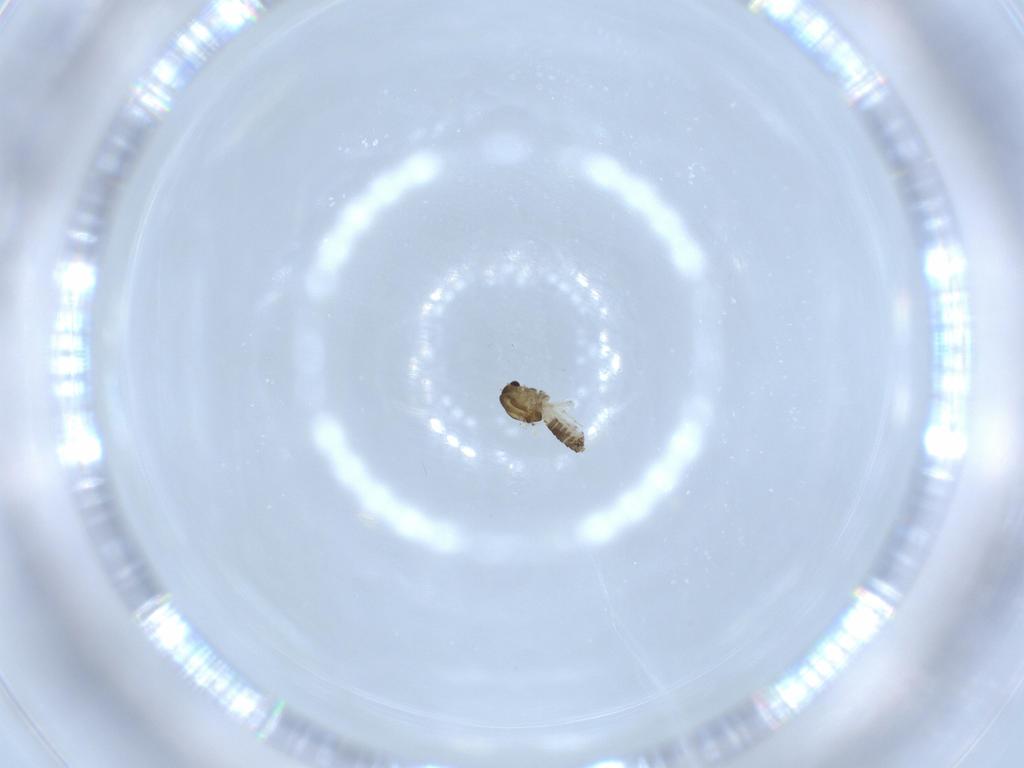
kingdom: Animalia
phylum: Arthropoda
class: Insecta
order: Diptera
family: Chironomidae
